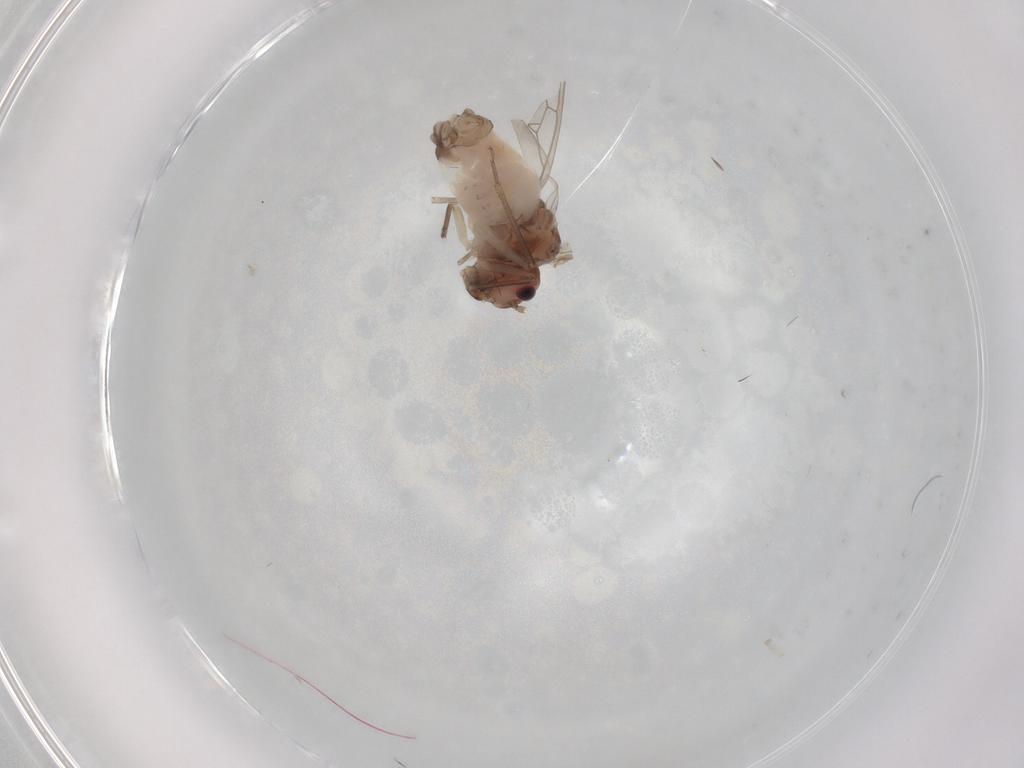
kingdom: Animalia
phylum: Arthropoda
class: Insecta
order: Psocodea
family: Peripsocidae
